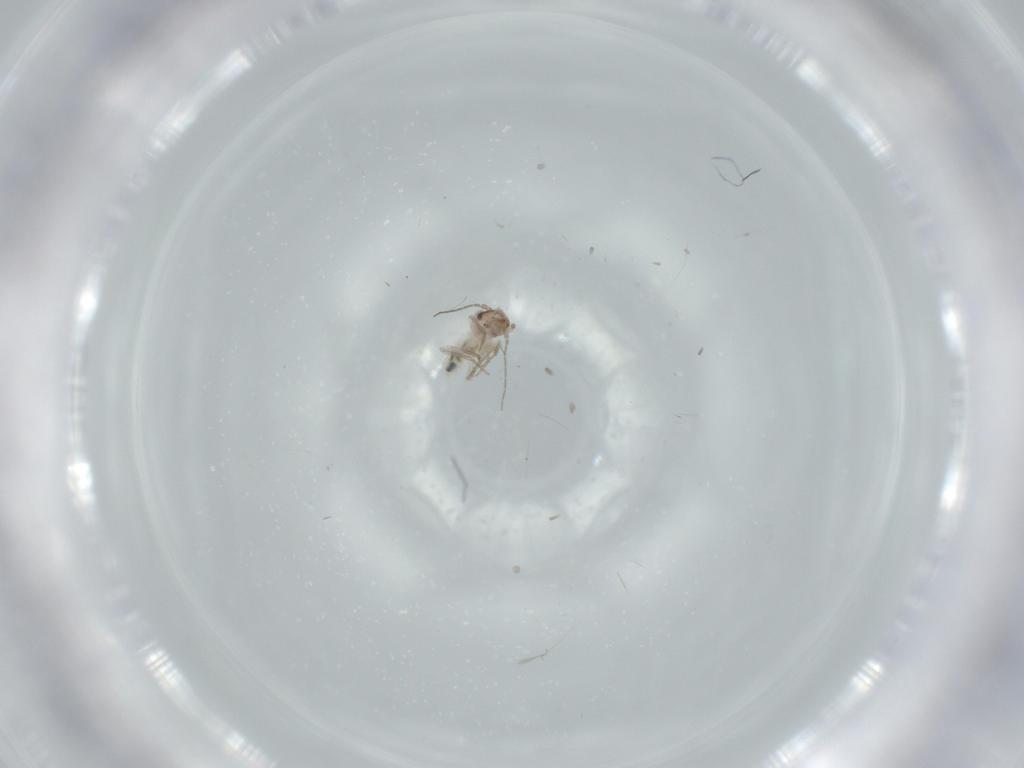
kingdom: Animalia
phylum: Arthropoda
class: Insecta
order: Psocodea
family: Lepidopsocidae
